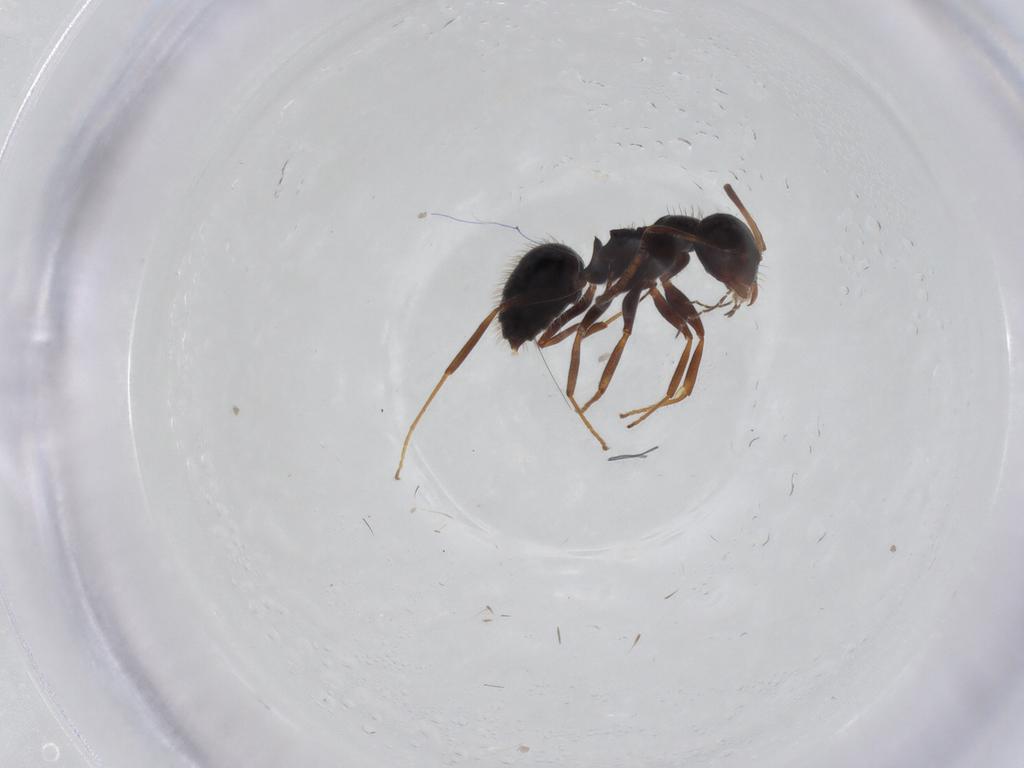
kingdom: Animalia
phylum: Arthropoda
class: Insecta
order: Hymenoptera
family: Formicidae
